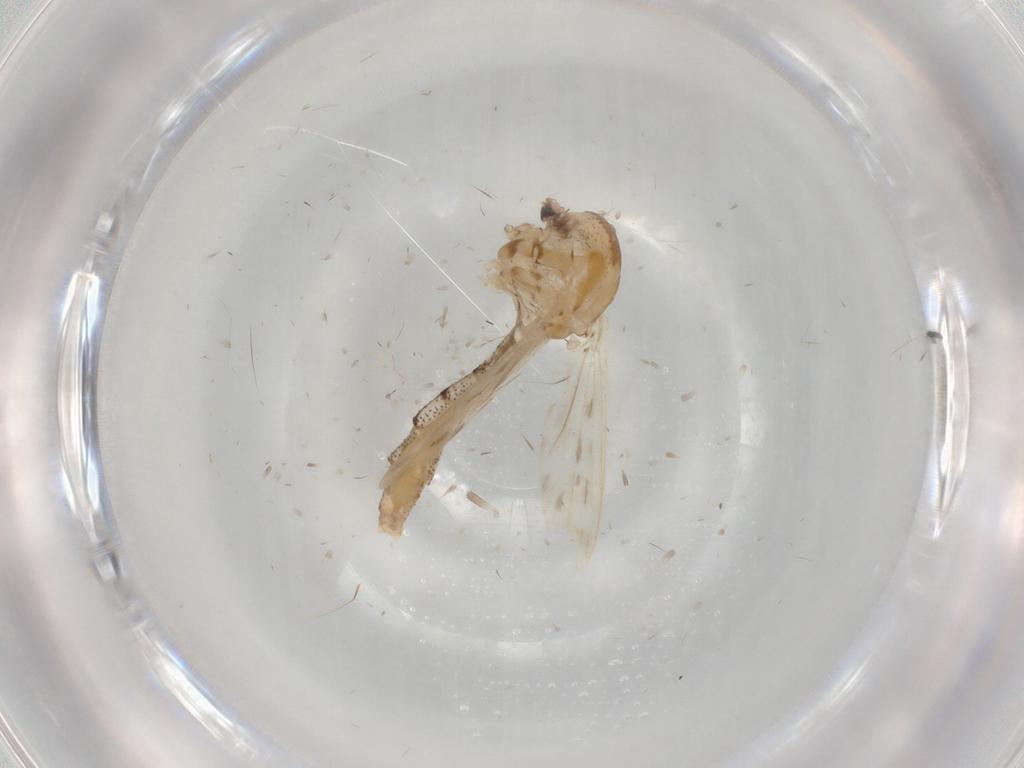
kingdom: Animalia
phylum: Arthropoda
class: Insecta
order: Diptera
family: Chaoboridae
